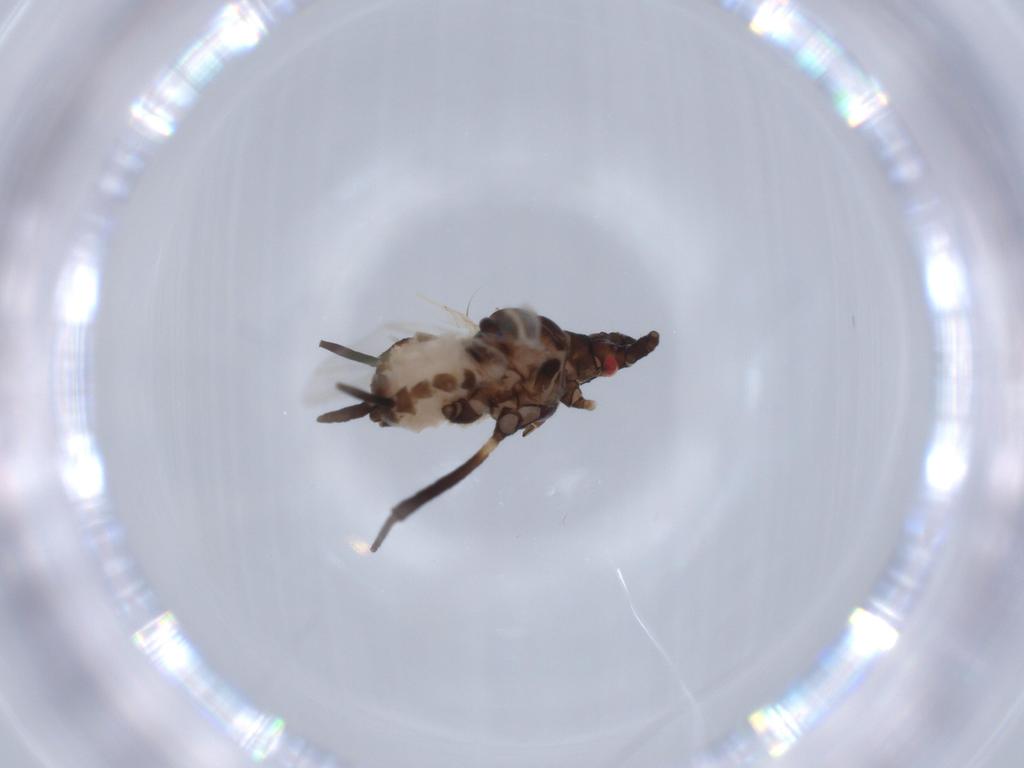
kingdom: Animalia
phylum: Arthropoda
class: Insecta
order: Hemiptera
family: Aphididae
